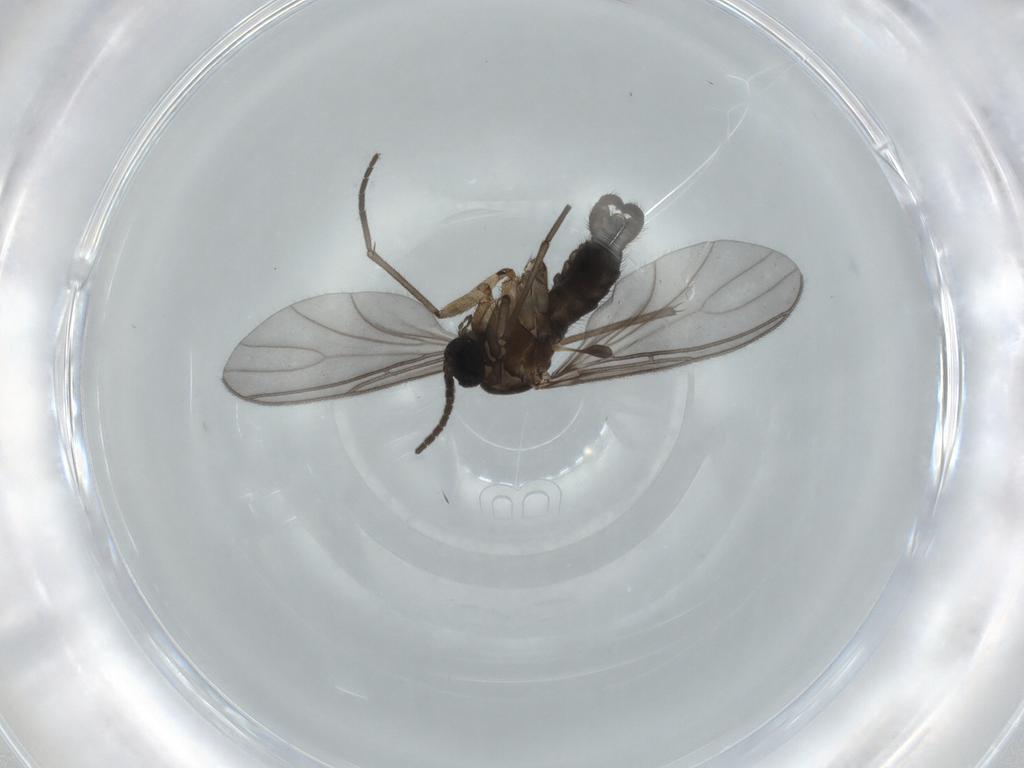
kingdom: Animalia
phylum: Arthropoda
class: Insecta
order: Diptera
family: Sciaridae
